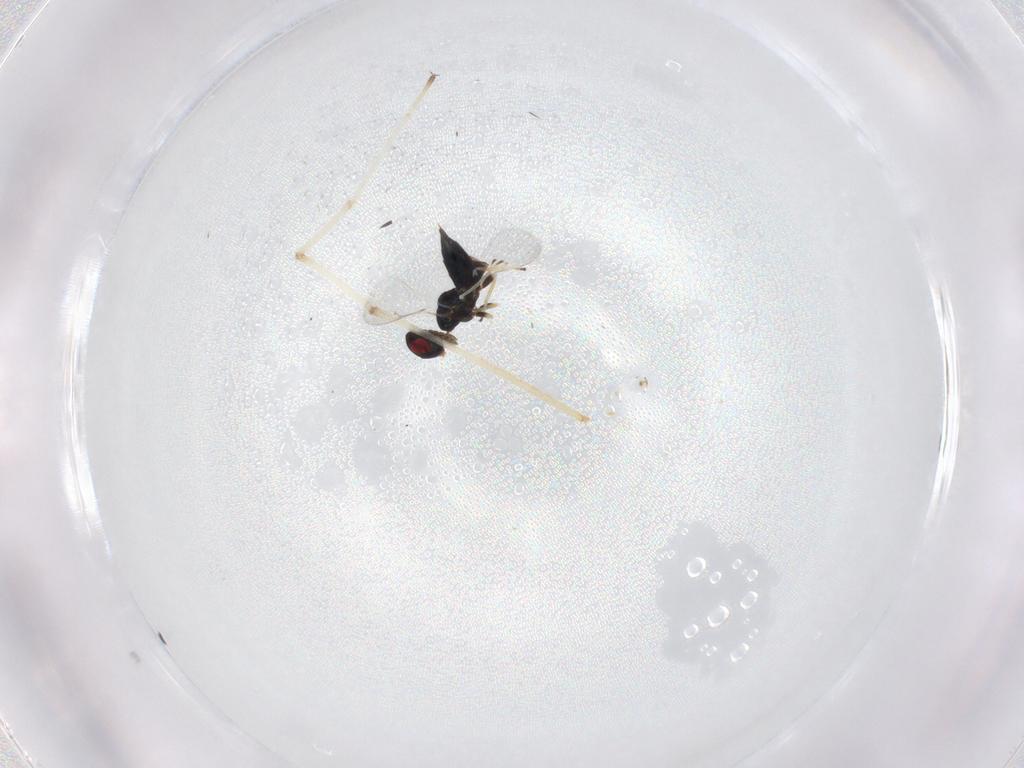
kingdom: Animalia
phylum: Arthropoda
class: Insecta
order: Hymenoptera
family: Eulophidae
